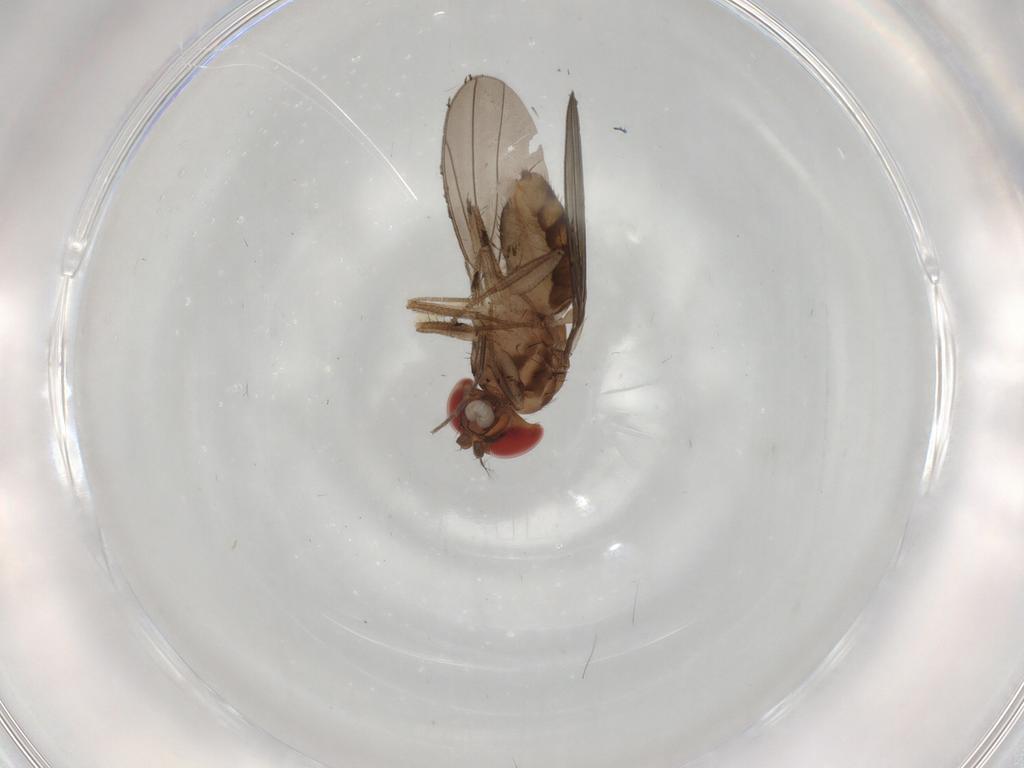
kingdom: Animalia
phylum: Arthropoda
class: Insecta
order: Diptera
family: Drosophilidae
